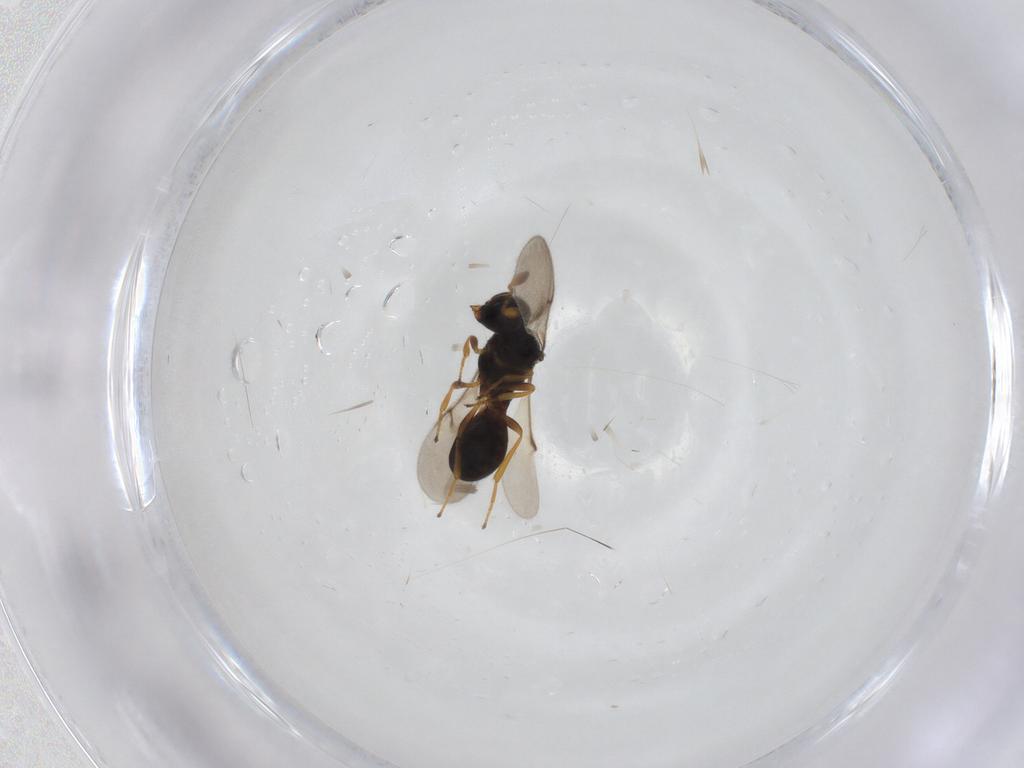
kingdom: Animalia
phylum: Arthropoda
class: Insecta
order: Hymenoptera
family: Scelionidae
